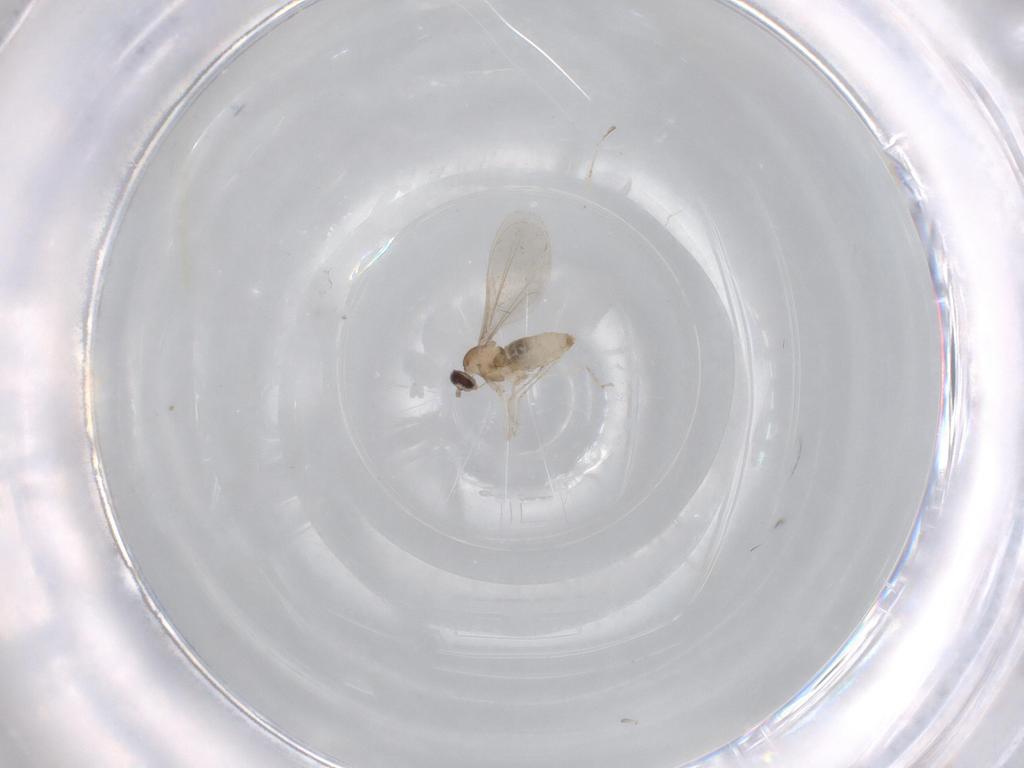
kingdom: Animalia
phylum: Arthropoda
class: Insecta
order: Diptera
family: Cecidomyiidae
